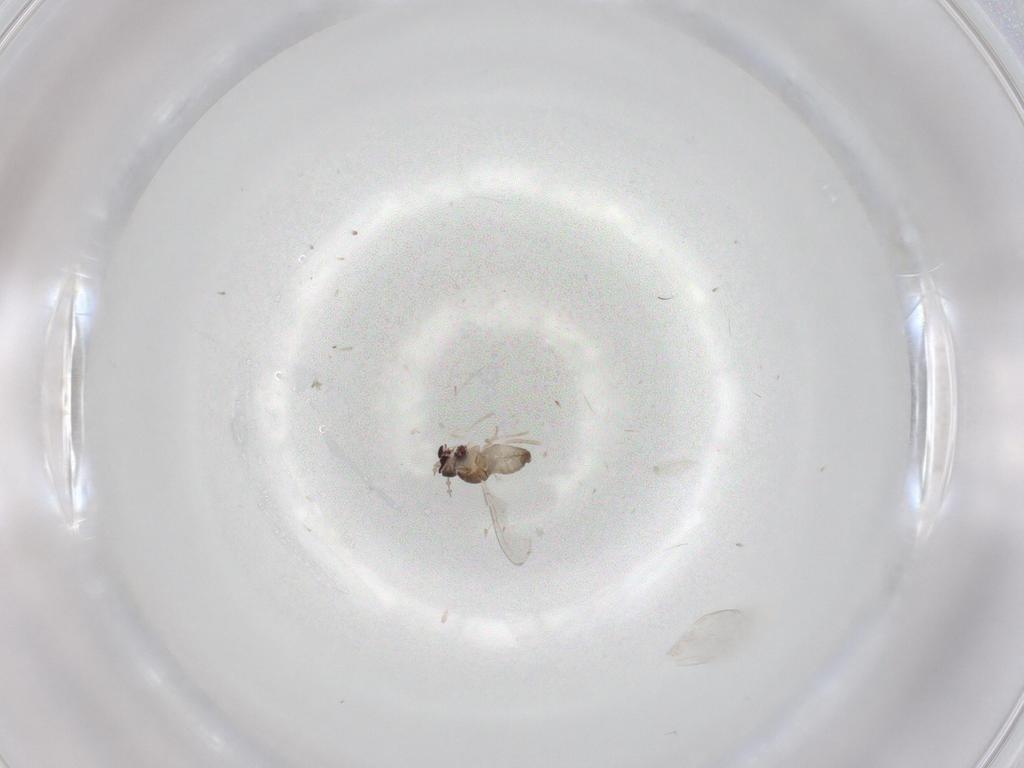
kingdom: Animalia
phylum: Arthropoda
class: Insecta
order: Diptera
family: Cecidomyiidae
